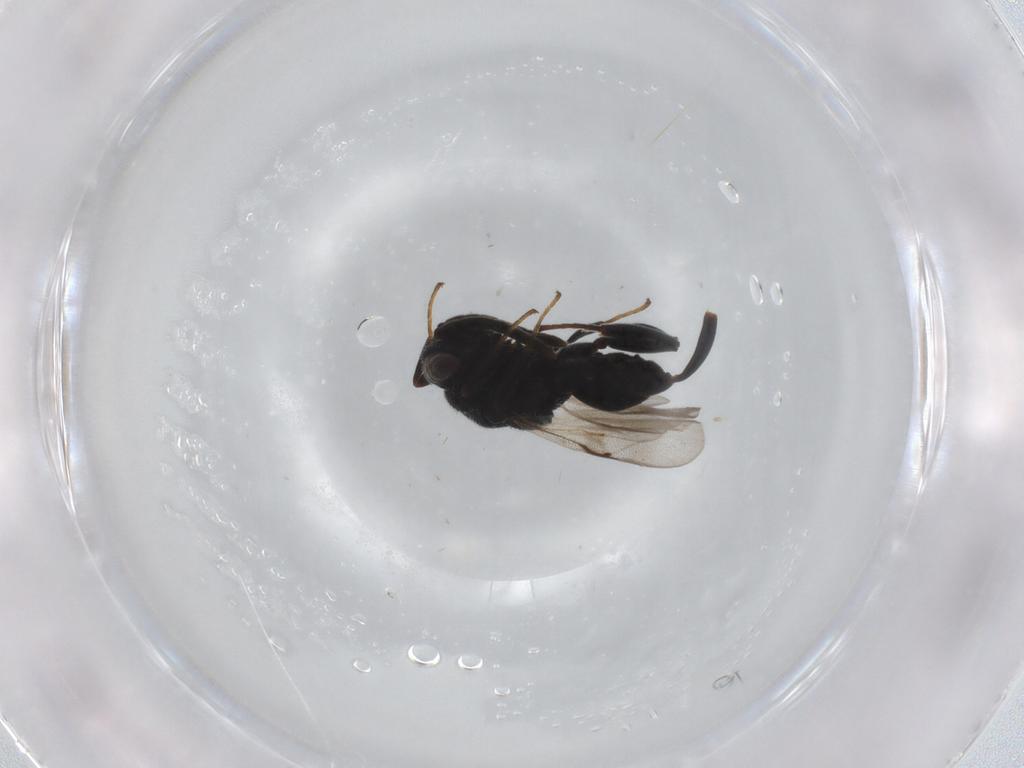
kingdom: Animalia
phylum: Arthropoda
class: Insecta
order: Hymenoptera
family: Chalcididae
